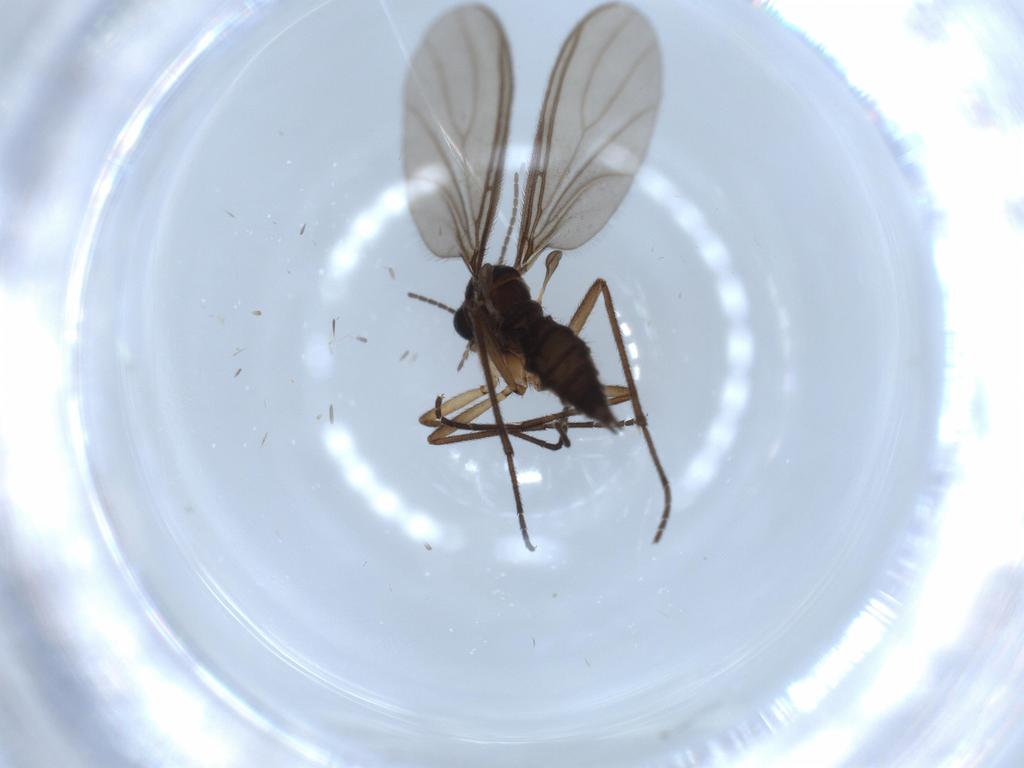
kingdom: Animalia
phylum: Arthropoda
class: Insecta
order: Diptera
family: Sciaridae
